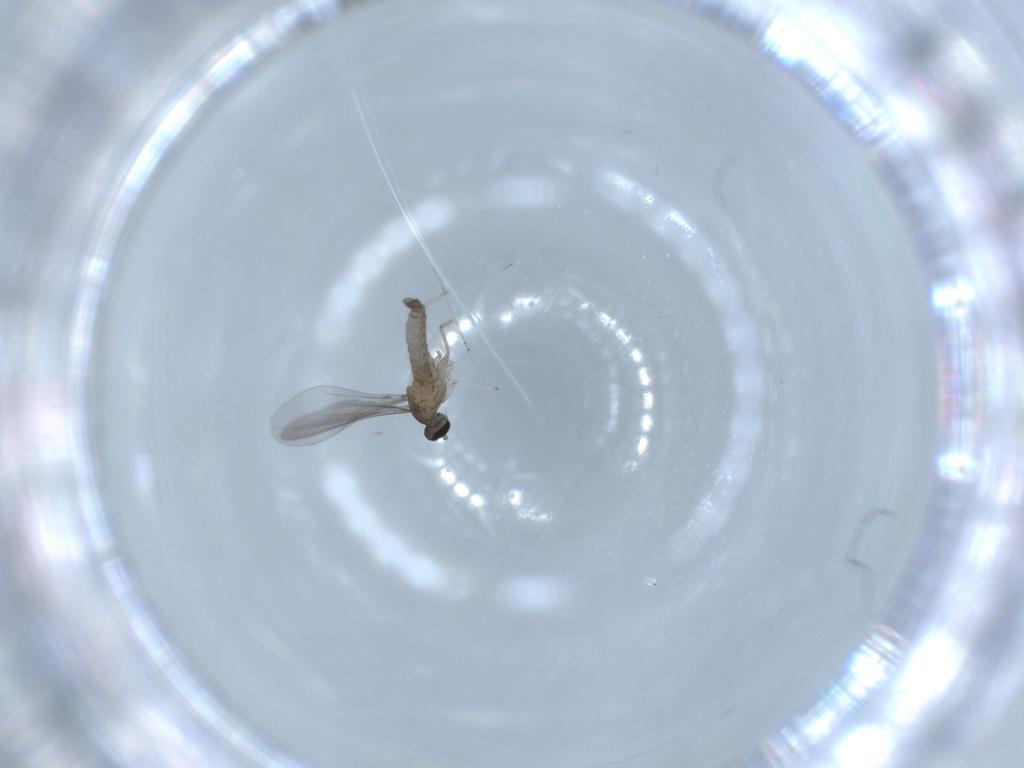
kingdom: Animalia
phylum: Arthropoda
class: Insecta
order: Diptera
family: Cecidomyiidae
